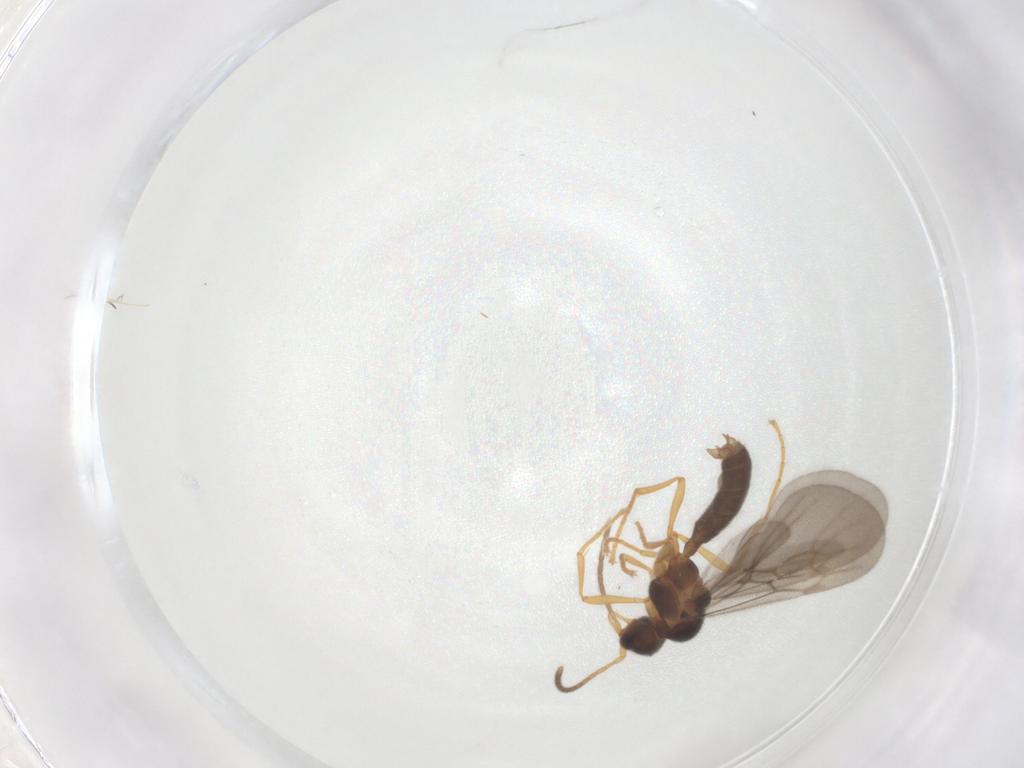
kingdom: Animalia
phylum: Arthropoda
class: Insecta
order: Hymenoptera
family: Formicidae
